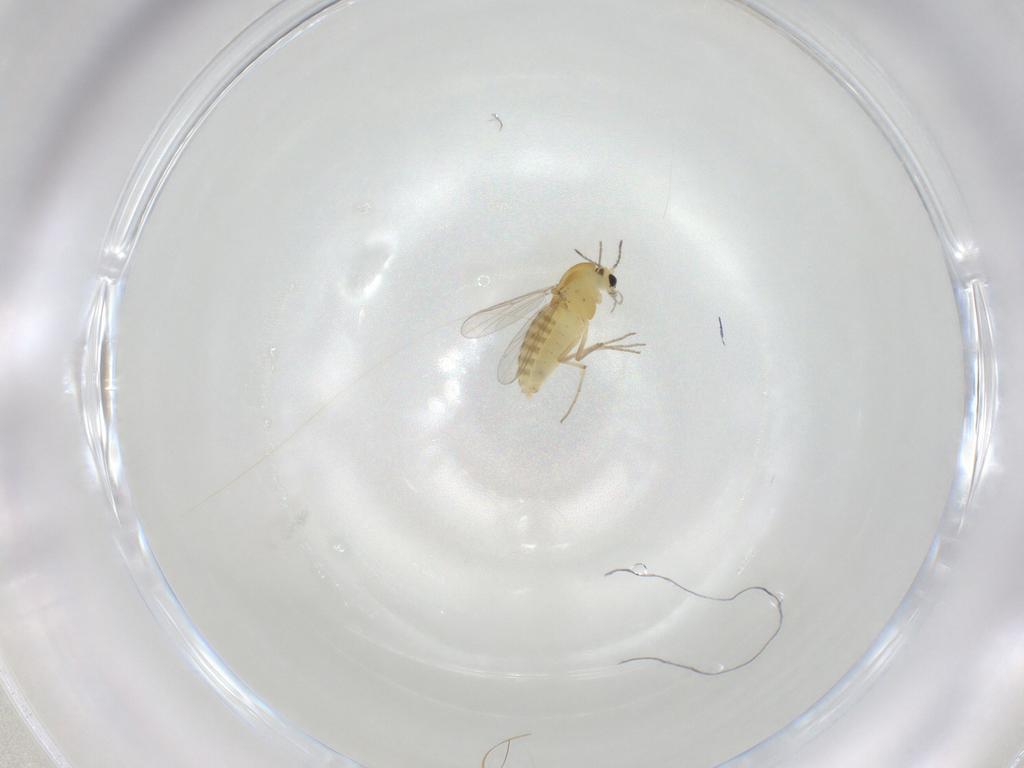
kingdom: Animalia
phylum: Arthropoda
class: Insecta
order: Diptera
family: Chironomidae
